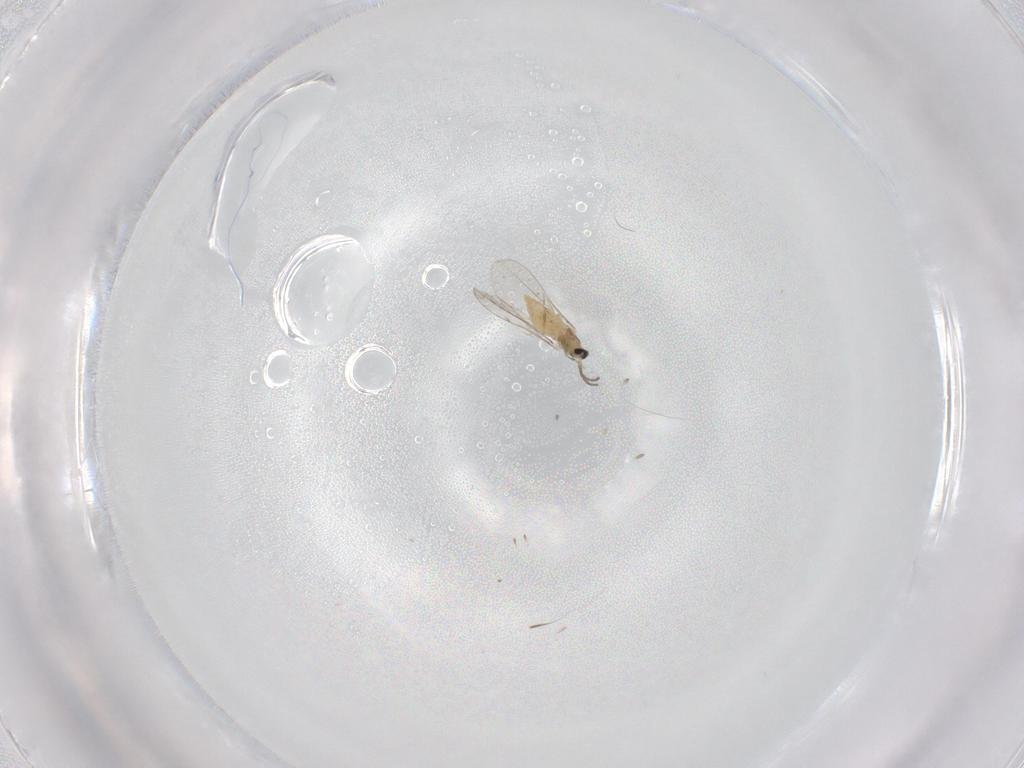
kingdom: Animalia
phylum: Arthropoda
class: Insecta
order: Diptera
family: Cecidomyiidae
